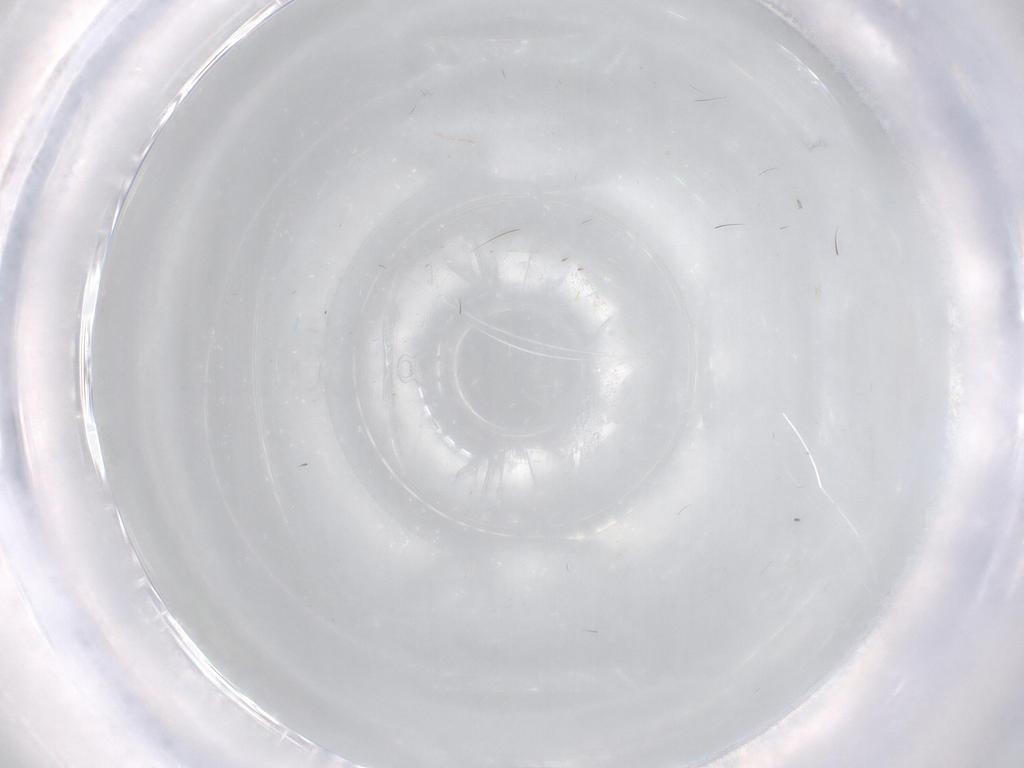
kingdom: Animalia
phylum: Arthropoda
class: Insecta
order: Diptera
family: Cecidomyiidae
